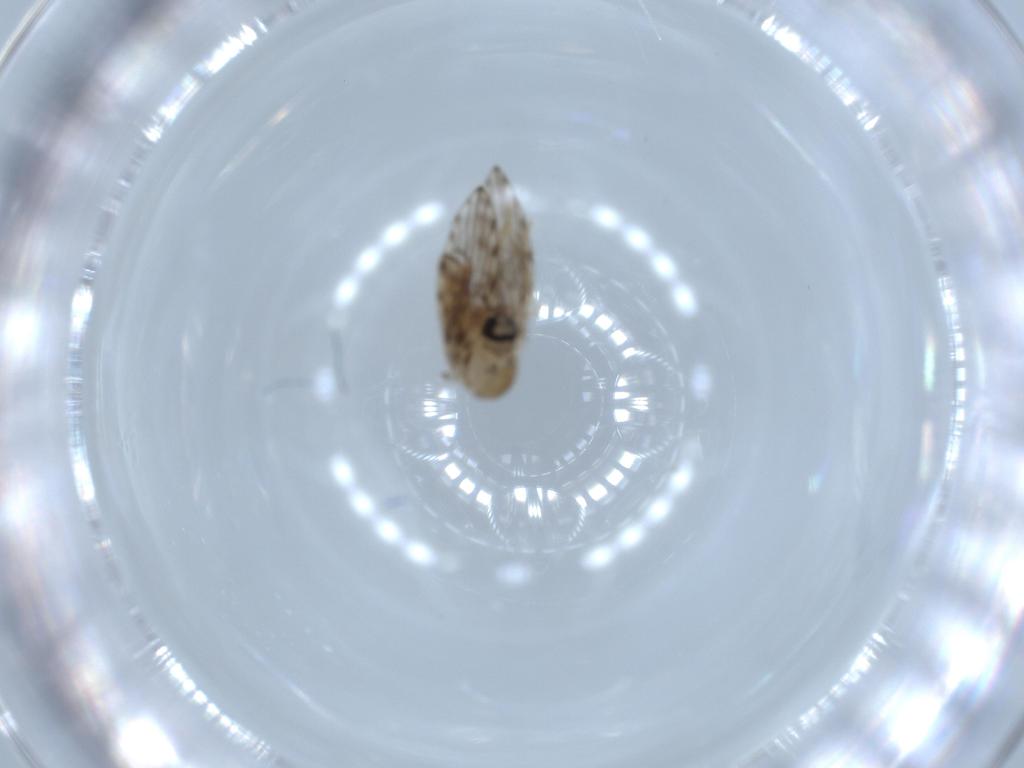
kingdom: Animalia
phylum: Arthropoda
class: Insecta
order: Diptera
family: Psychodidae
